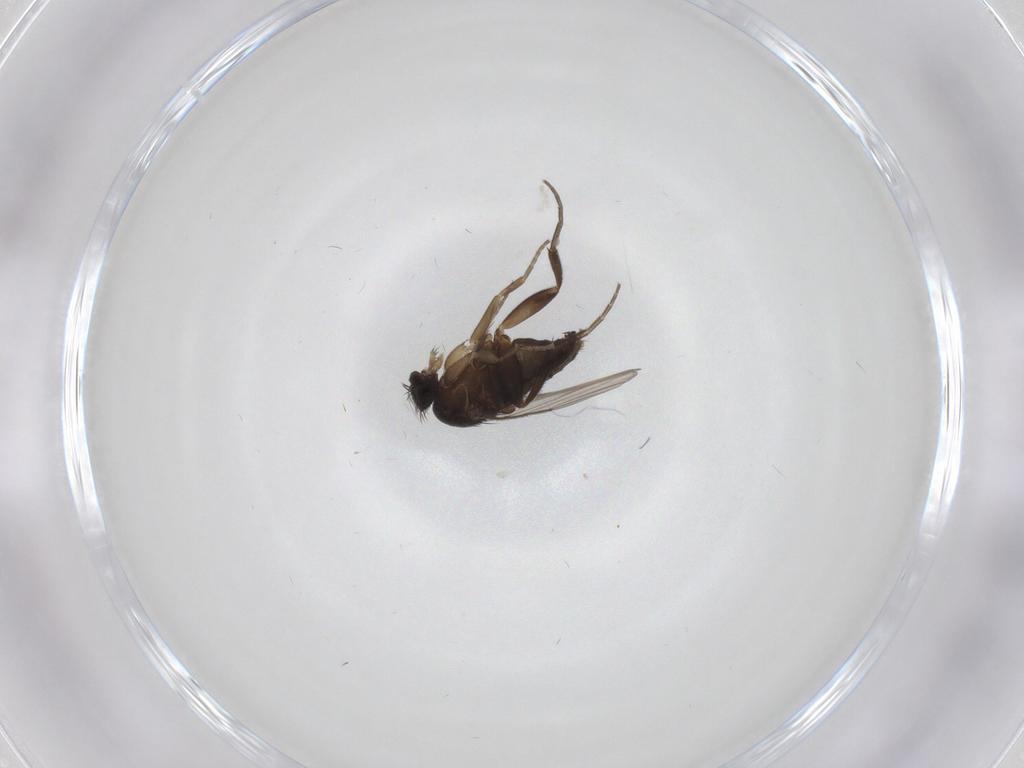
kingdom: Animalia
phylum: Arthropoda
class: Insecta
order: Diptera
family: Phoridae
